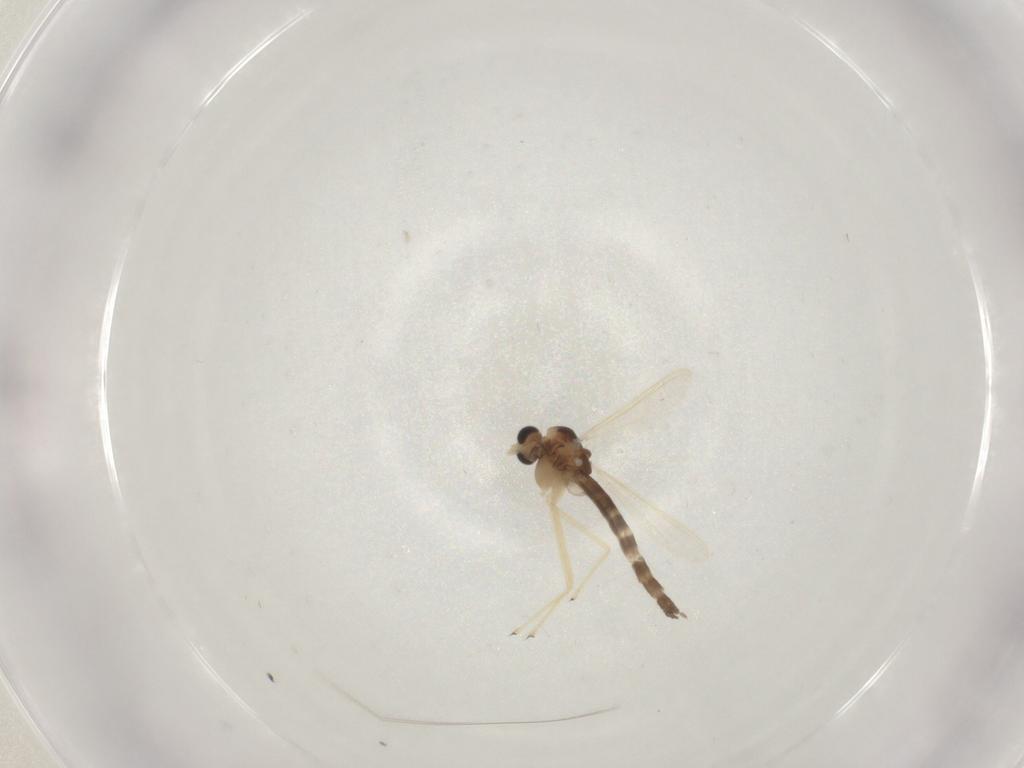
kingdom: Animalia
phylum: Arthropoda
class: Insecta
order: Diptera
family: Chironomidae
